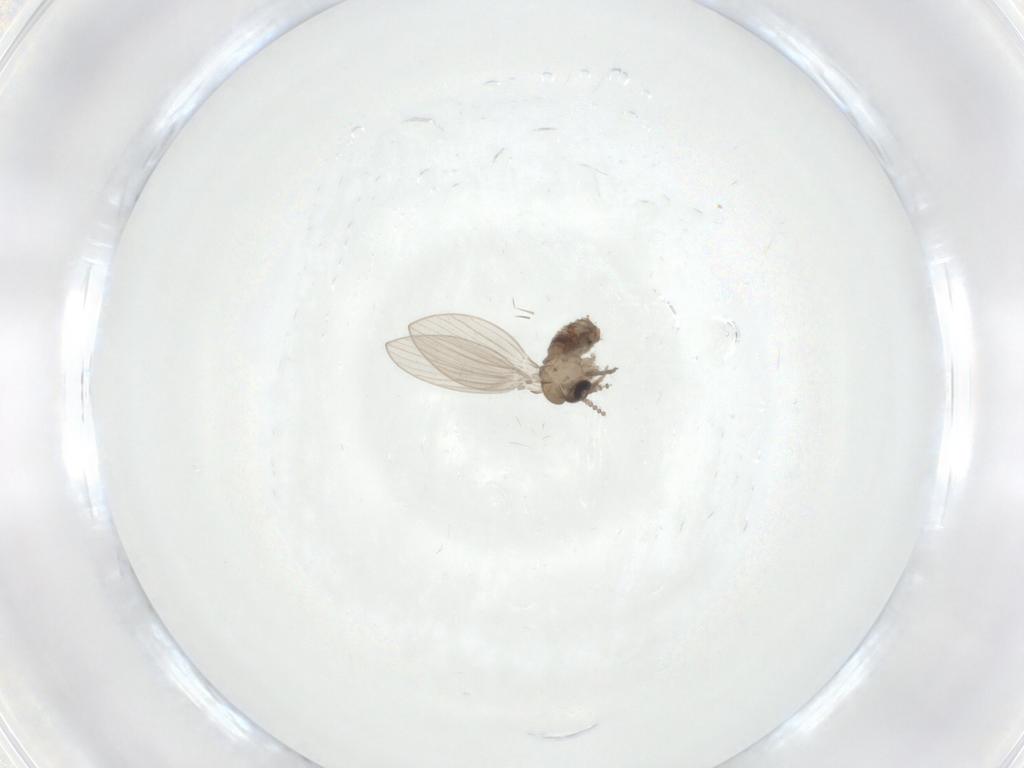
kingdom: Animalia
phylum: Arthropoda
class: Insecta
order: Diptera
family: Psychodidae
